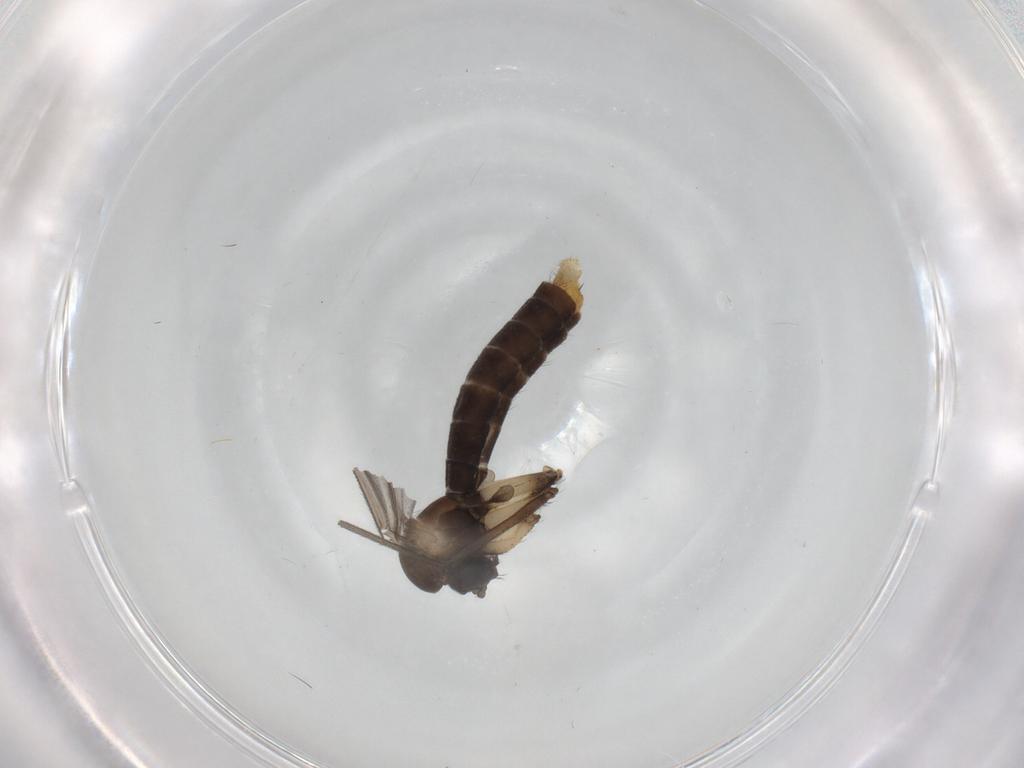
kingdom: Animalia
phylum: Arthropoda
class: Insecta
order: Diptera
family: Ditomyiidae
